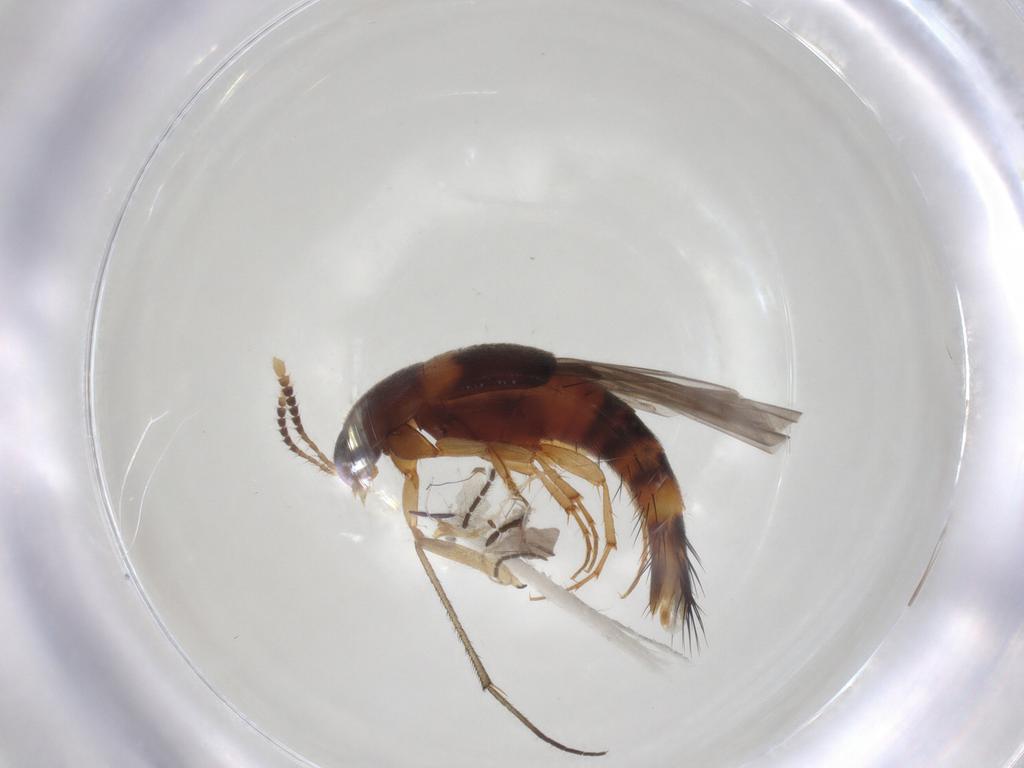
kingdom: Animalia
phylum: Arthropoda
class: Insecta
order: Coleoptera
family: Staphylinidae
